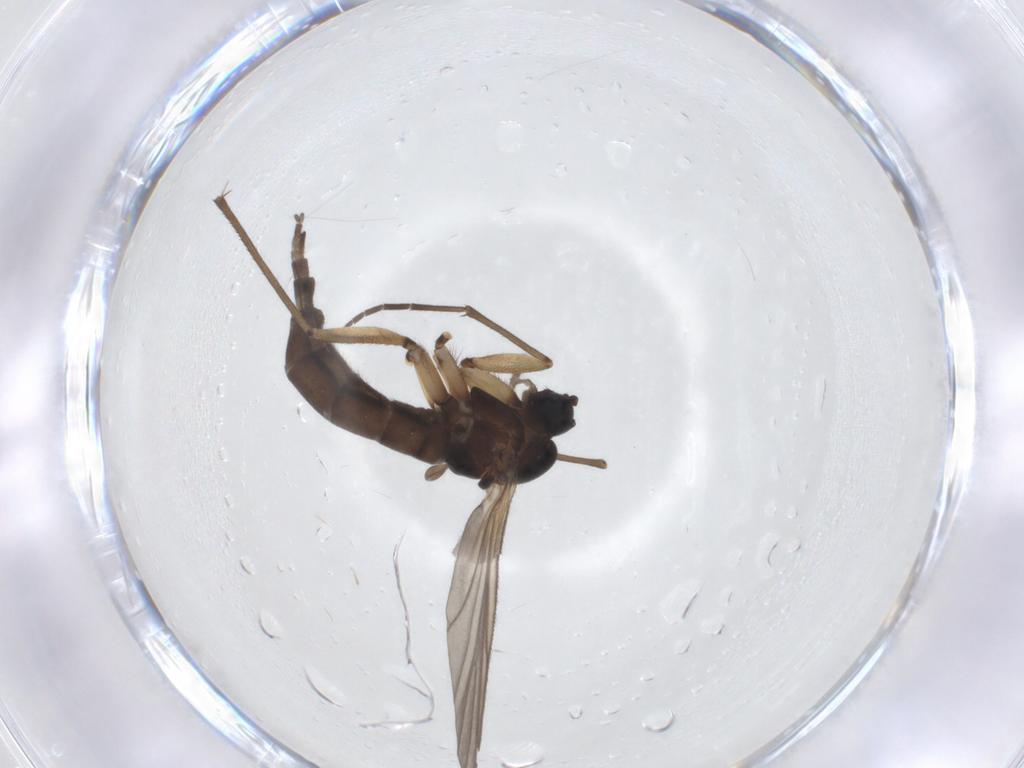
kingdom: Animalia
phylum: Arthropoda
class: Insecta
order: Diptera
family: Sciaridae
